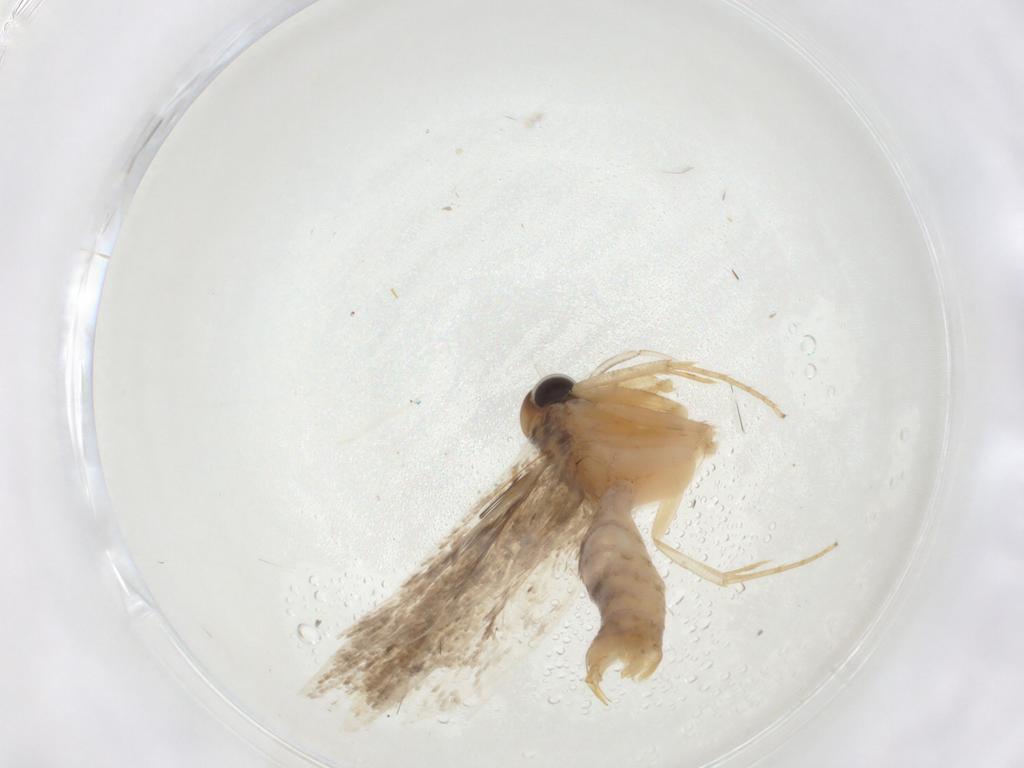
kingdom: Animalia
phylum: Arthropoda
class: Insecta
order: Lepidoptera
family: Gelechiidae
